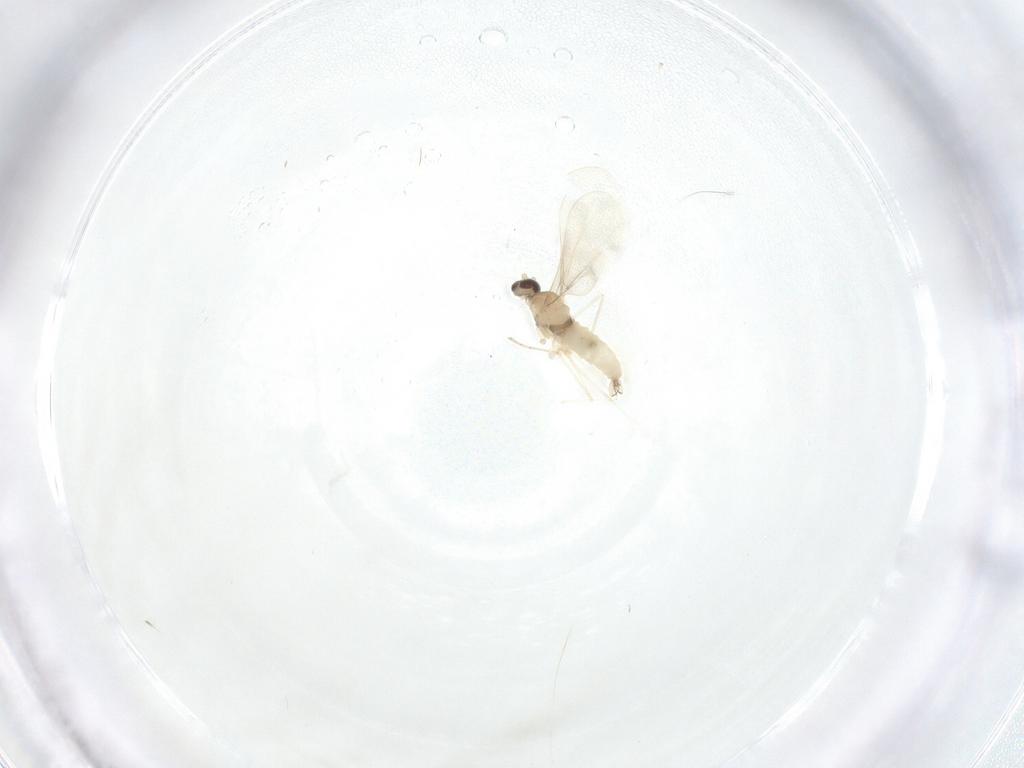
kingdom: Animalia
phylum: Arthropoda
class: Insecta
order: Diptera
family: Cecidomyiidae
